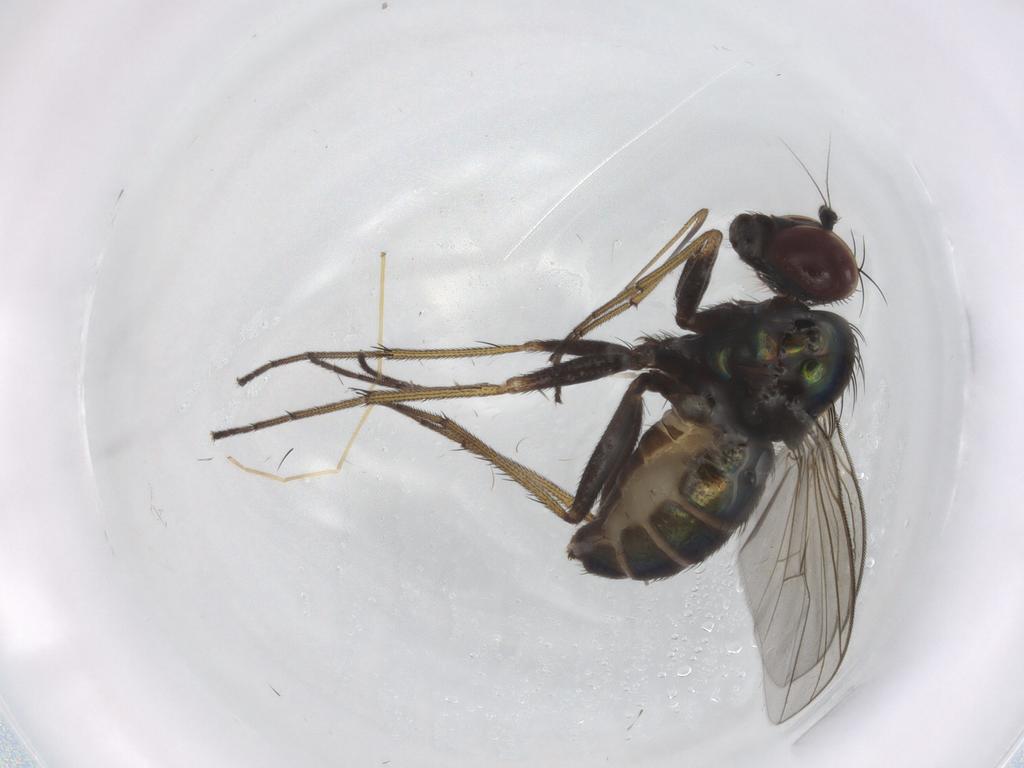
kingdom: Animalia
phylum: Arthropoda
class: Insecta
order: Diptera
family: Dolichopodidae
